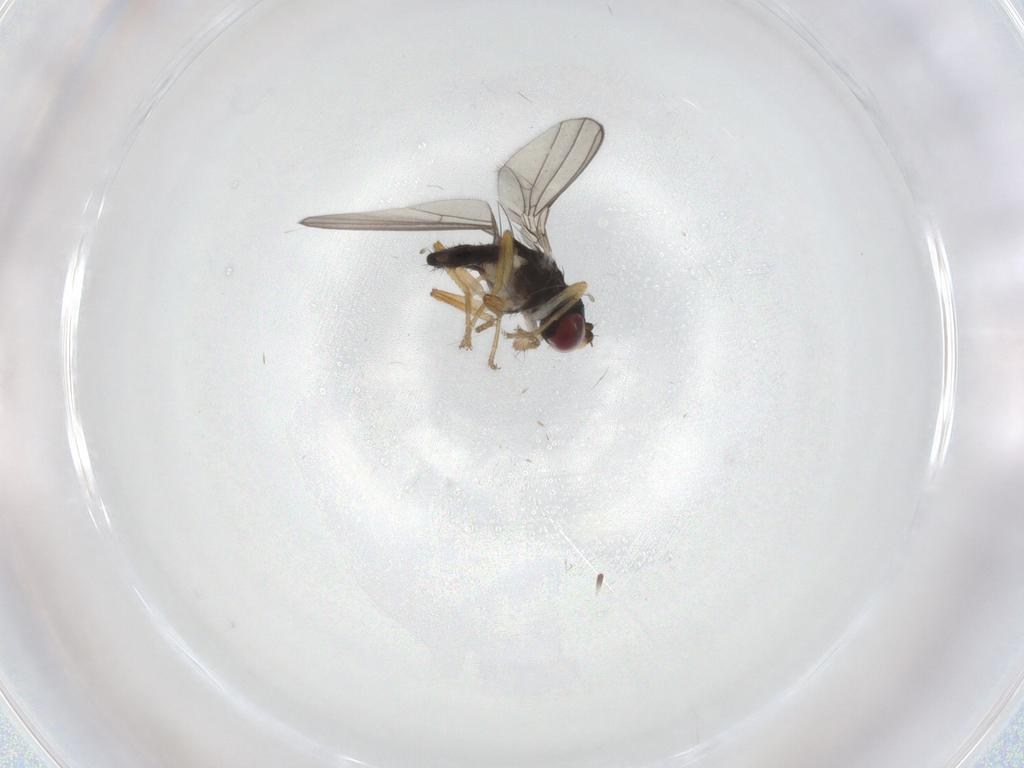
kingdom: Animalia
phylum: Arthropoda
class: Insecta
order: Diptera
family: Anthomyzidae
